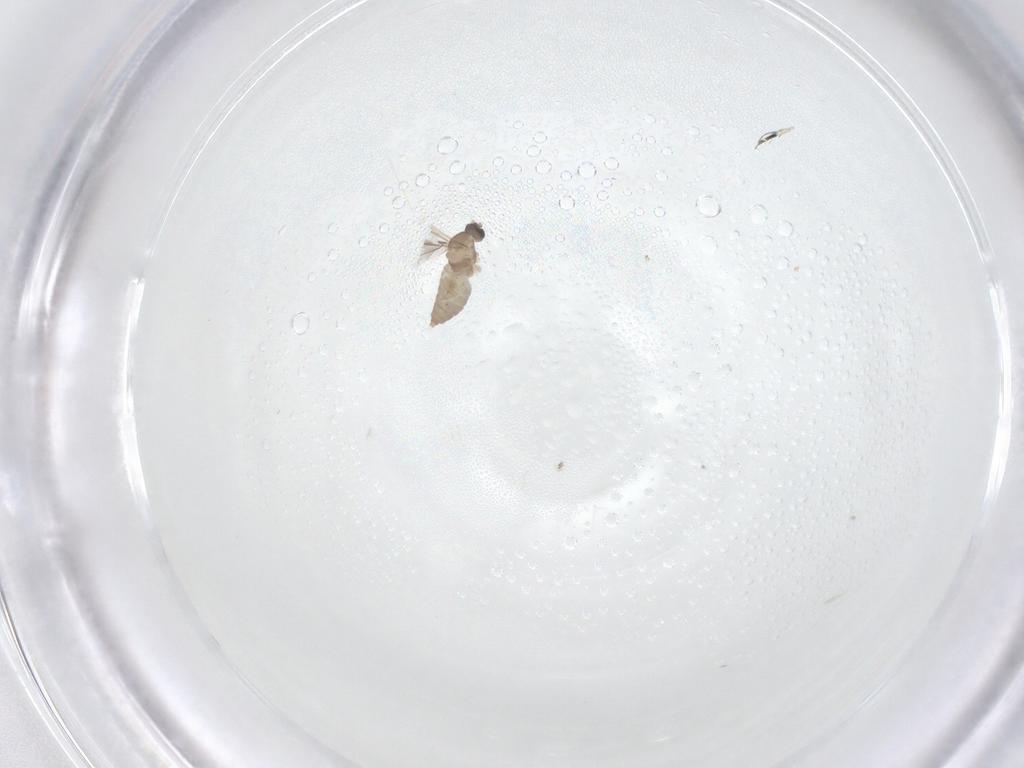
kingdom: Animalia
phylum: Arthropoda
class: Insecta
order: Diptera
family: Cecidomyiidae
